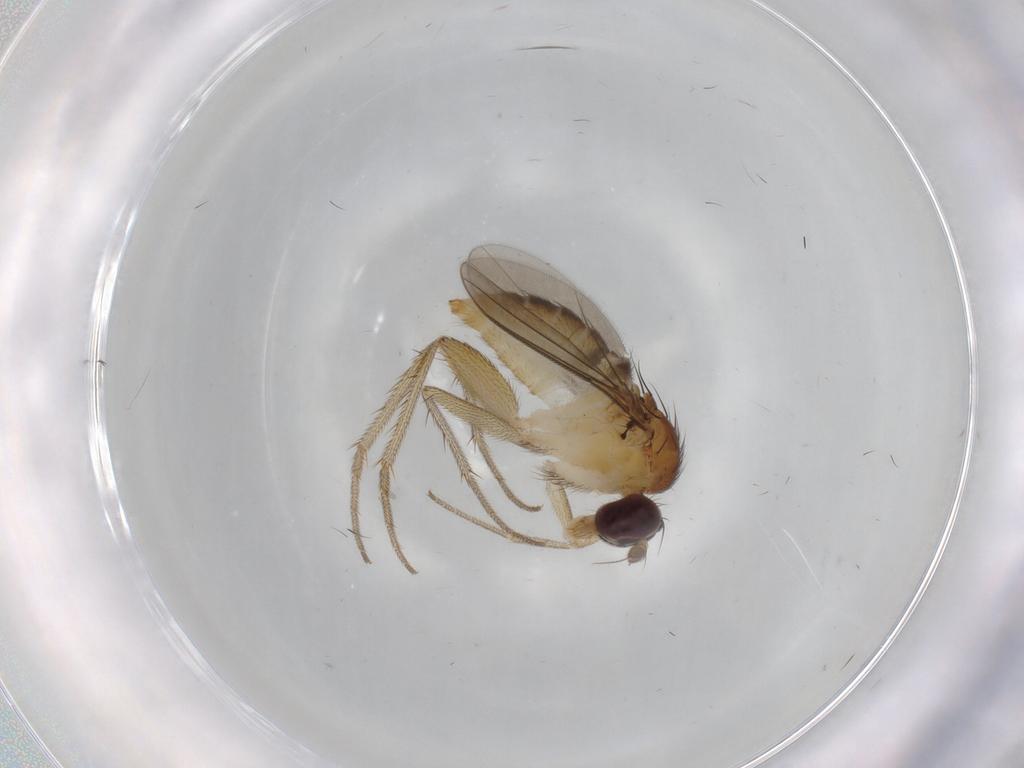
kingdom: Animalia
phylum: Arthropoda
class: Insecta
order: Diptera
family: Dolichopodidae
